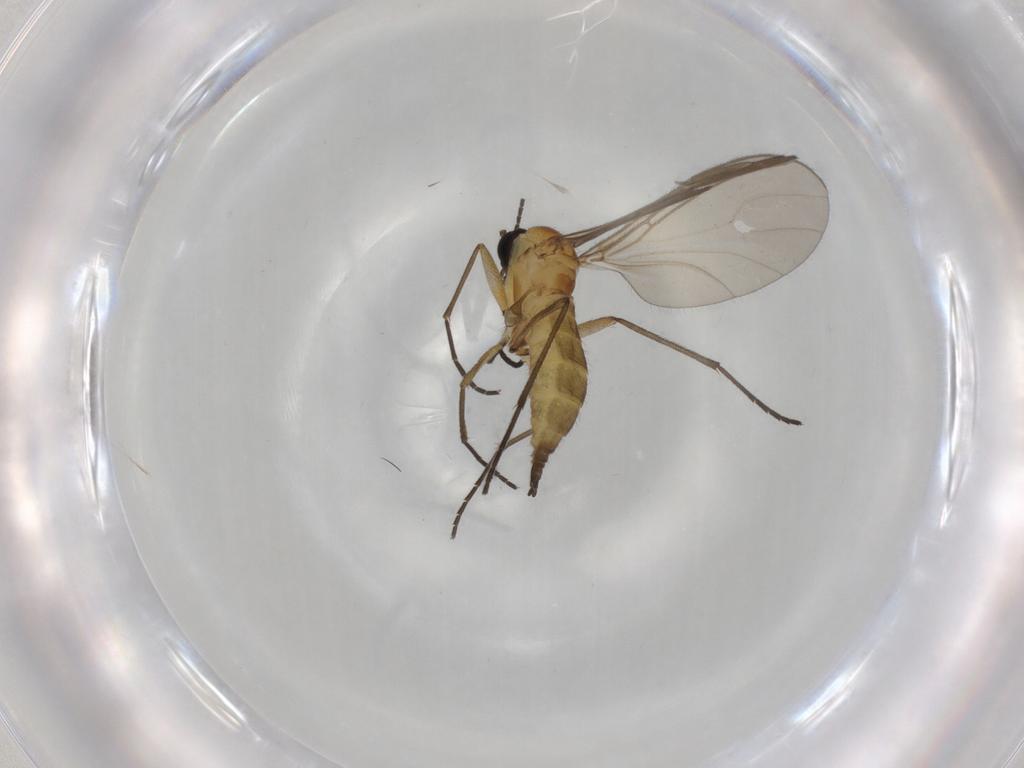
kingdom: Animalia
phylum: Arthropoda
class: Insecta
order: Diptera
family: Sciaridae
